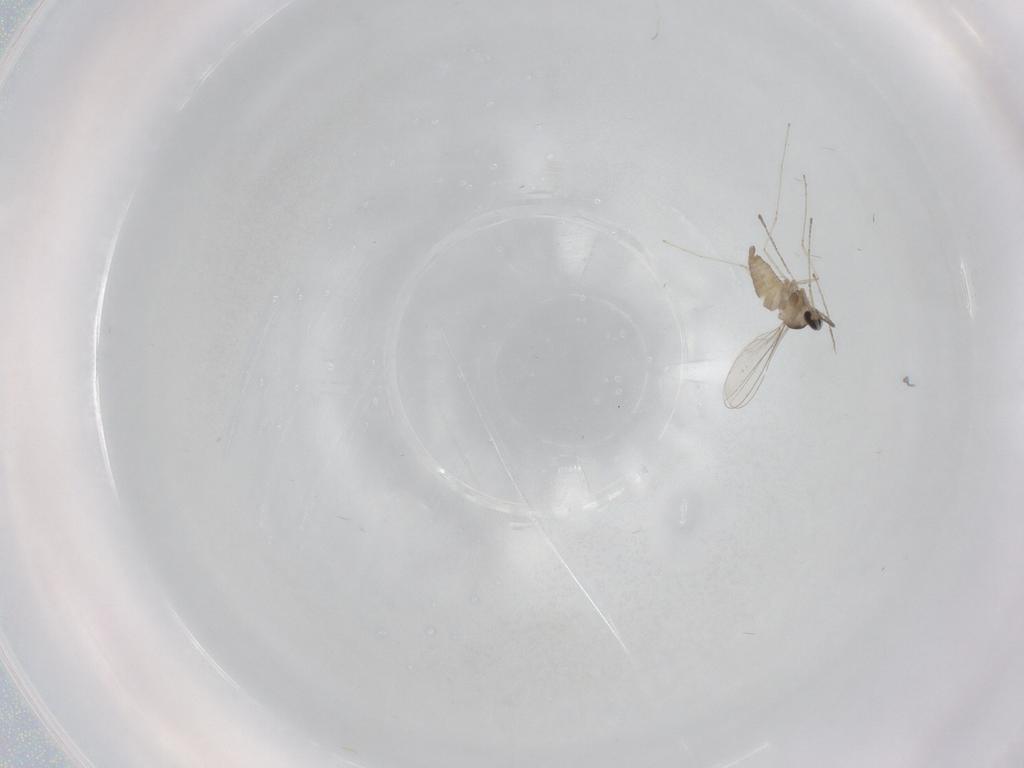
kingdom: Animalia
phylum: Arthropoda
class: Insecta
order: Diptera
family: Cecidomyiidae
